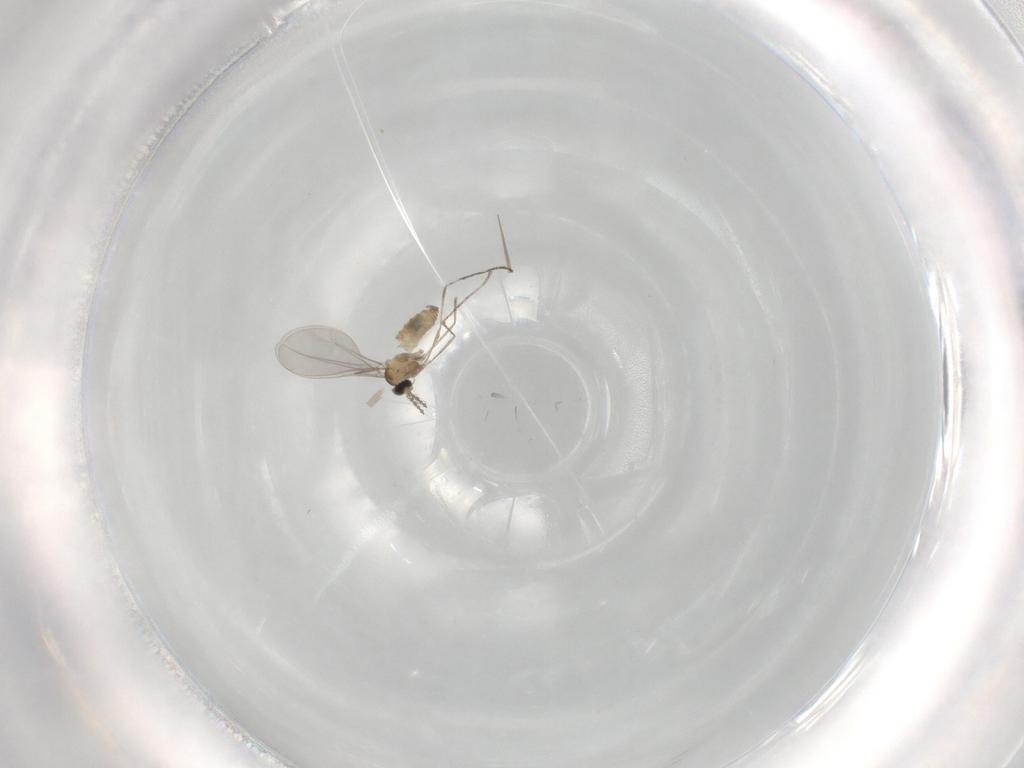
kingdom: Animalia
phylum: Arthropoda
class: Insecta
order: Diptera
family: Cecidomyiidae
